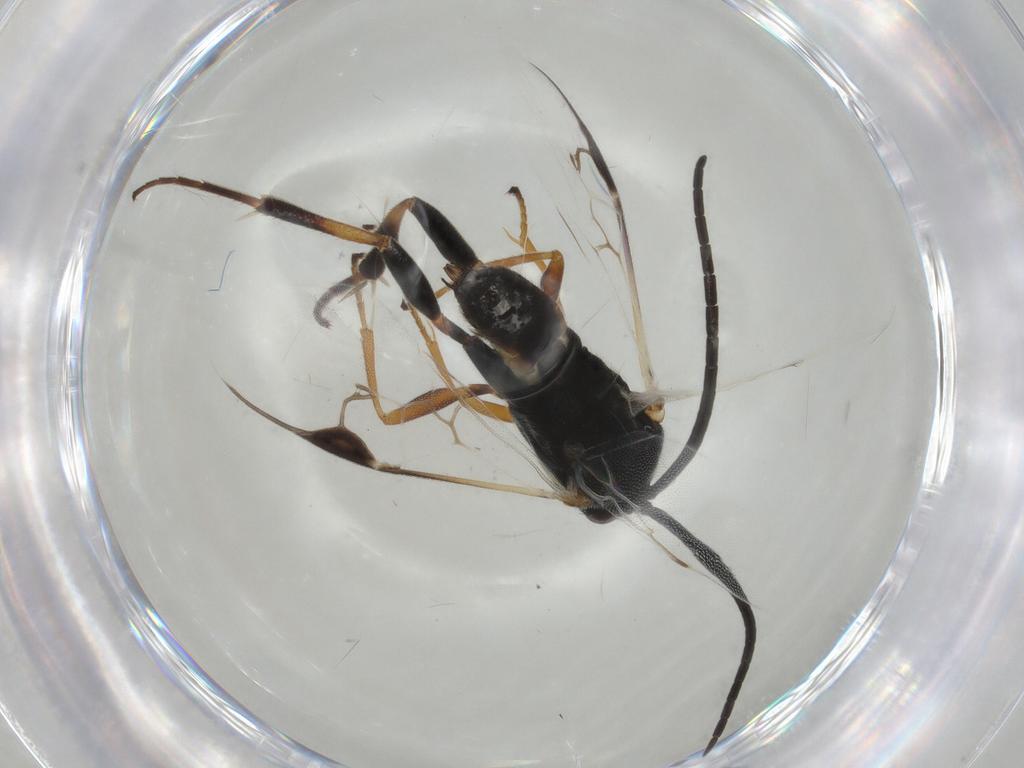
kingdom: Animalia
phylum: Arthropoda
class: Insecta
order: Hymenoptera
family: Braconidae
